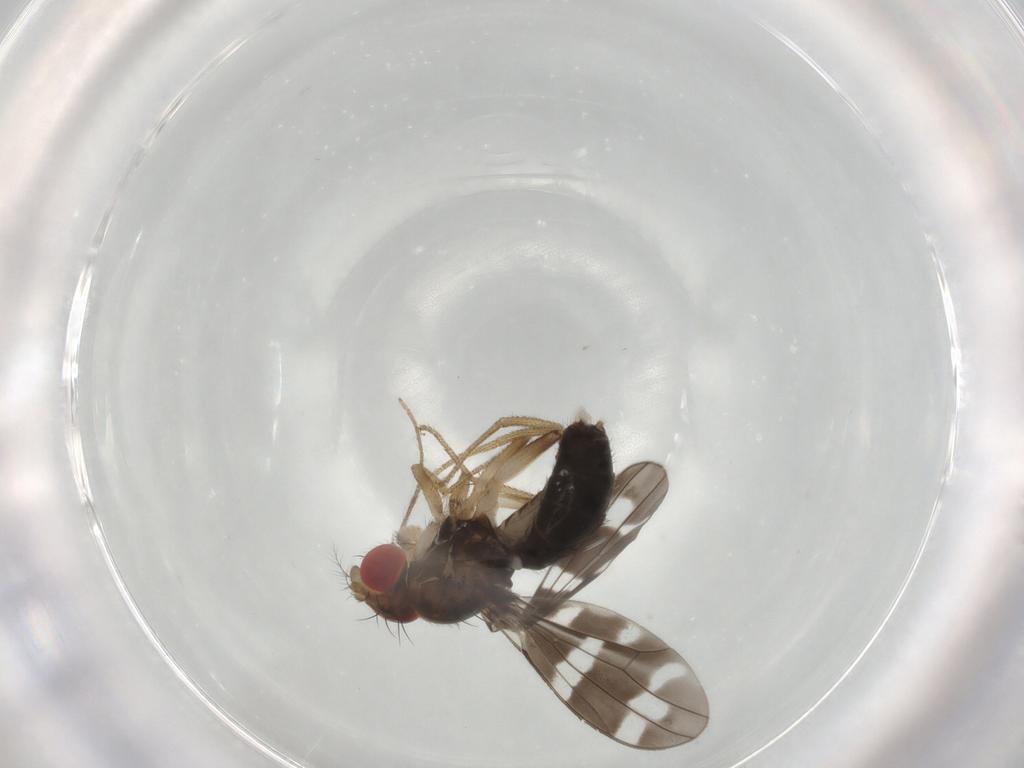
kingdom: Animalia
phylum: Arthropoda
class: Insecta
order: Diptera
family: Drosophilidae
